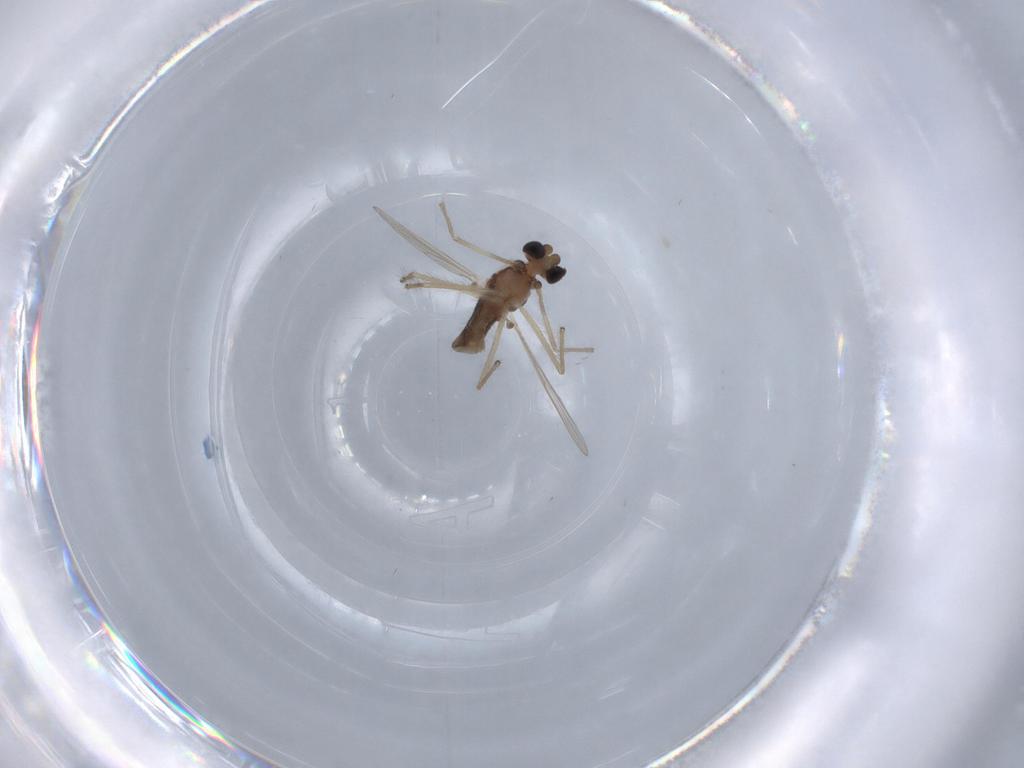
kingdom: Animalia
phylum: Arthropoda
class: Insecta
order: Diptera
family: Chironomidae
